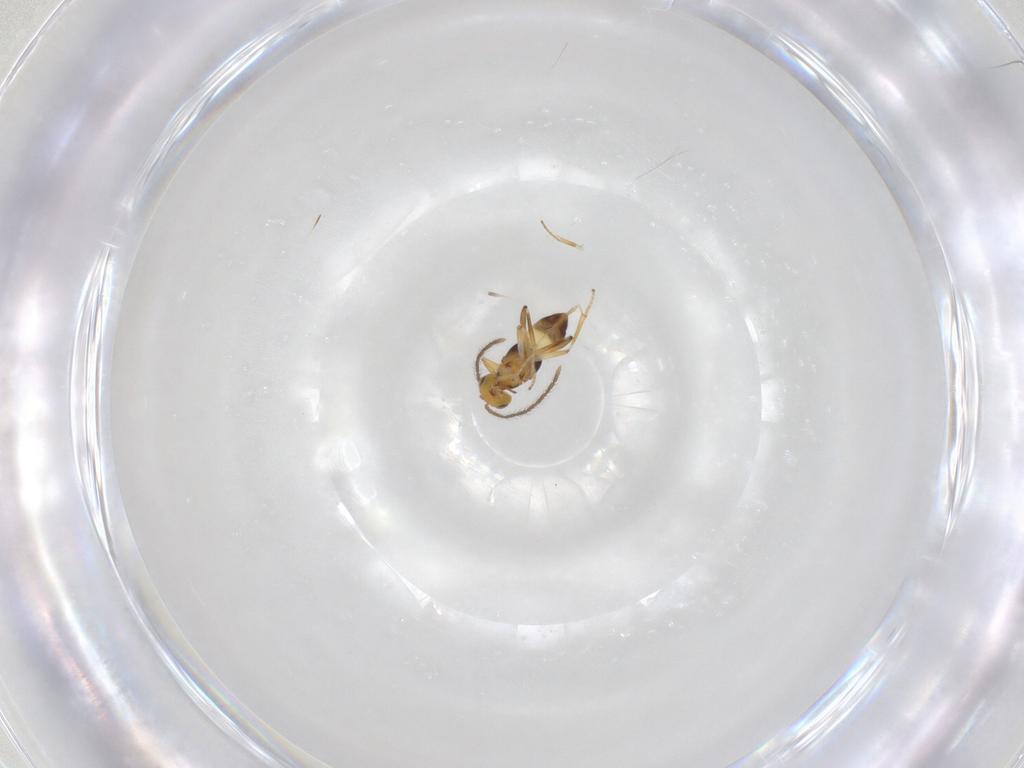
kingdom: Animalia
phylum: Arthropoda
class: Insecta
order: Hymenoptera
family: Encyrtidae
